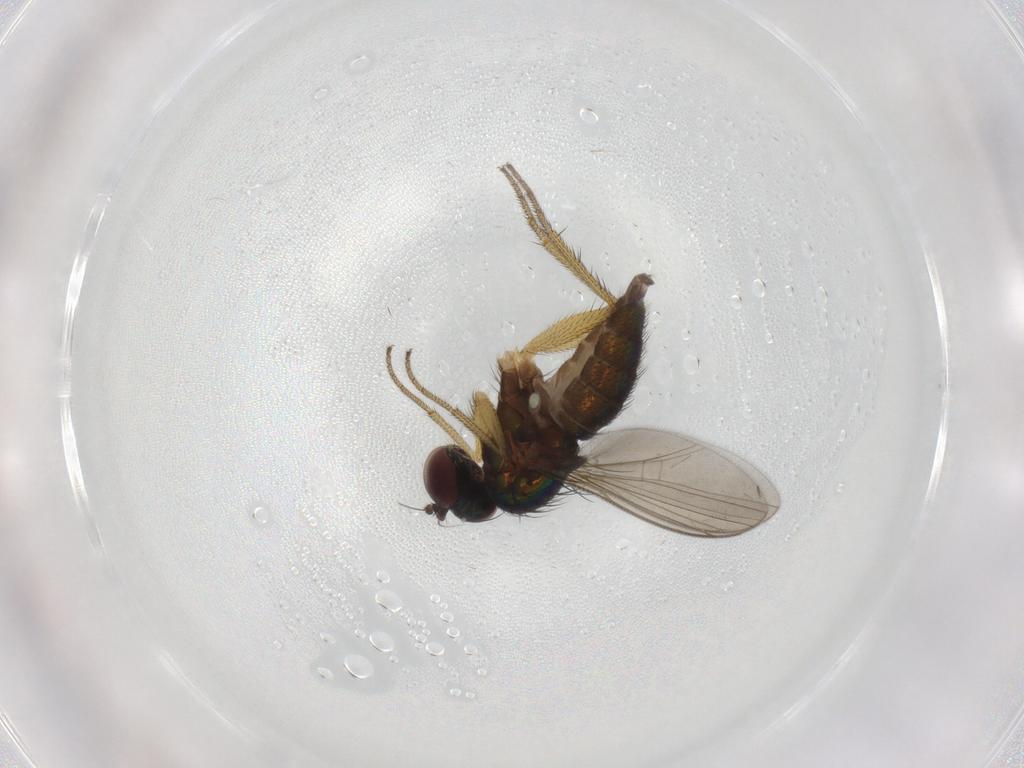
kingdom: Animalia
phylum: Arthropoda
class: Insecta
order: Diptera
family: Dolichopodidae
